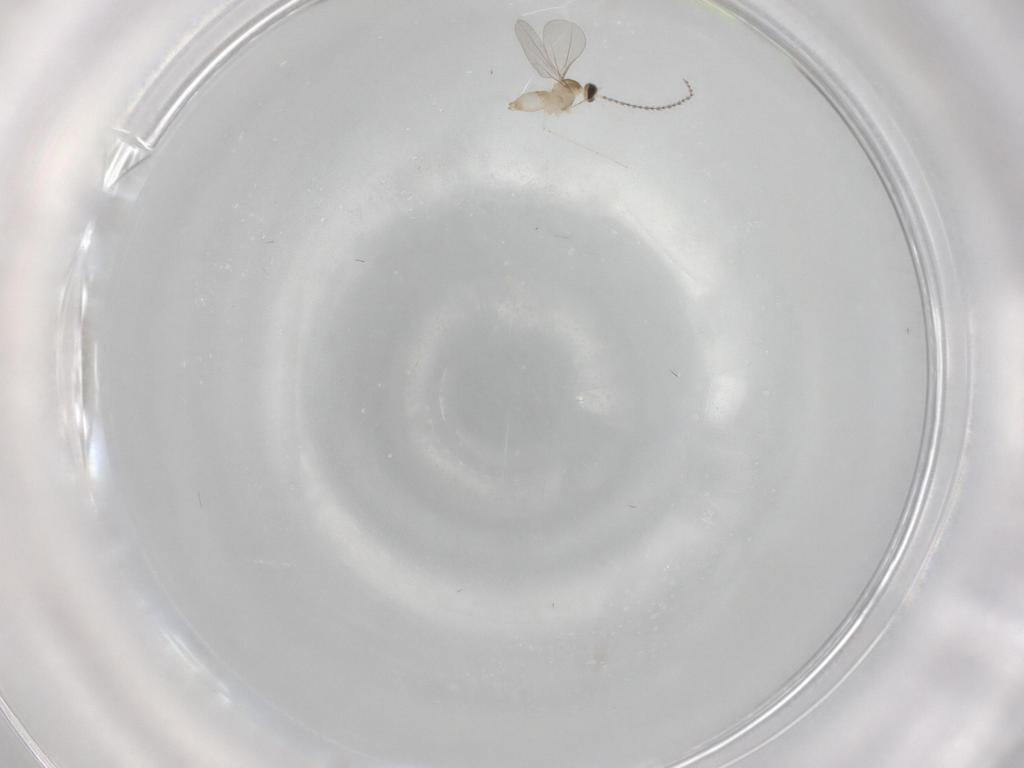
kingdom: Animalia
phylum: Arthropoda
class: Insecta
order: Diptera
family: Cecidomyiidae
